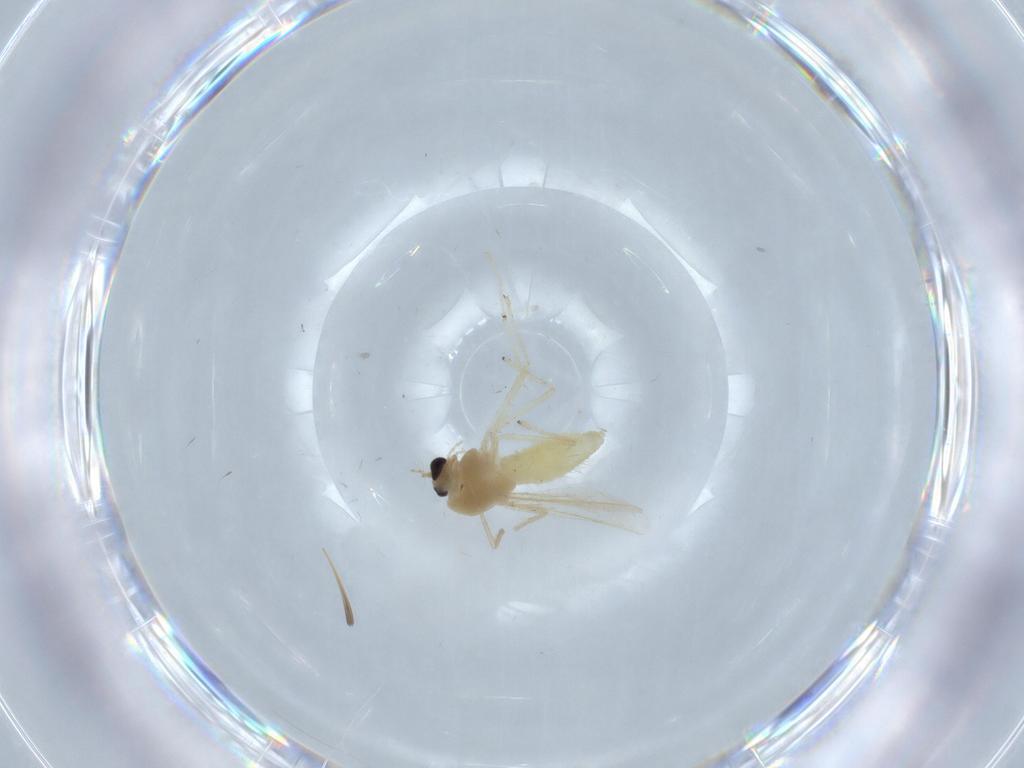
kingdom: Animalia
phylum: Arthropoda
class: Insecta
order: Diptera
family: Chironomidae
